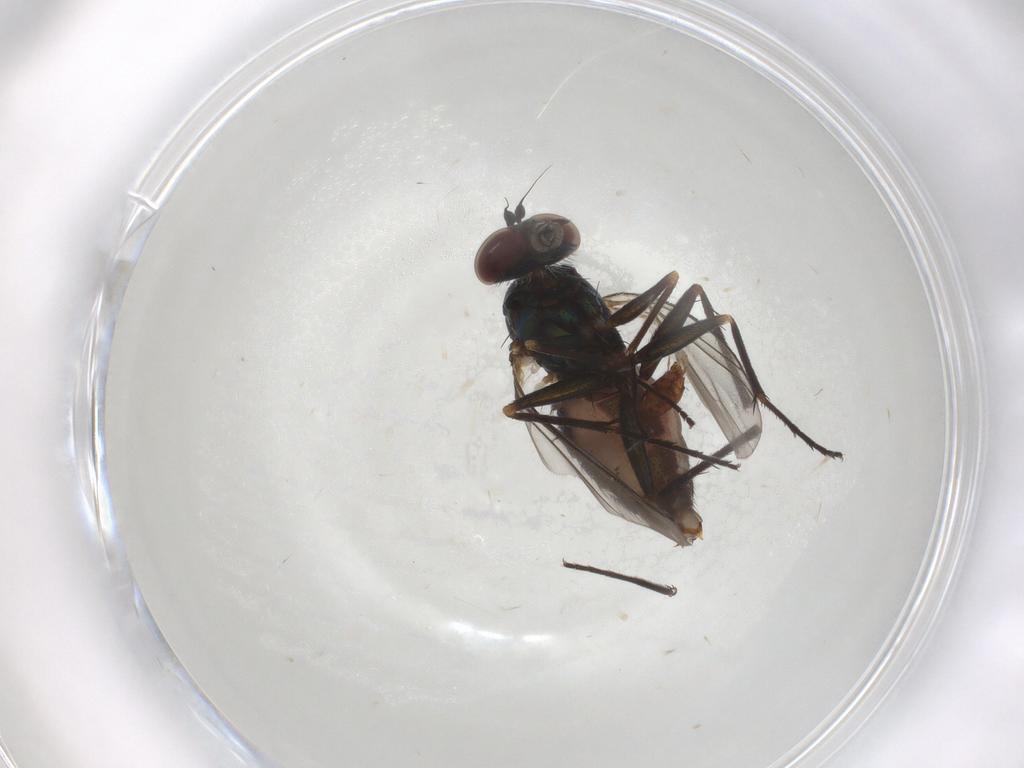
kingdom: Animalia
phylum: Arthropoda
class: Insecta
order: Diptera
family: Dolichopodidae
